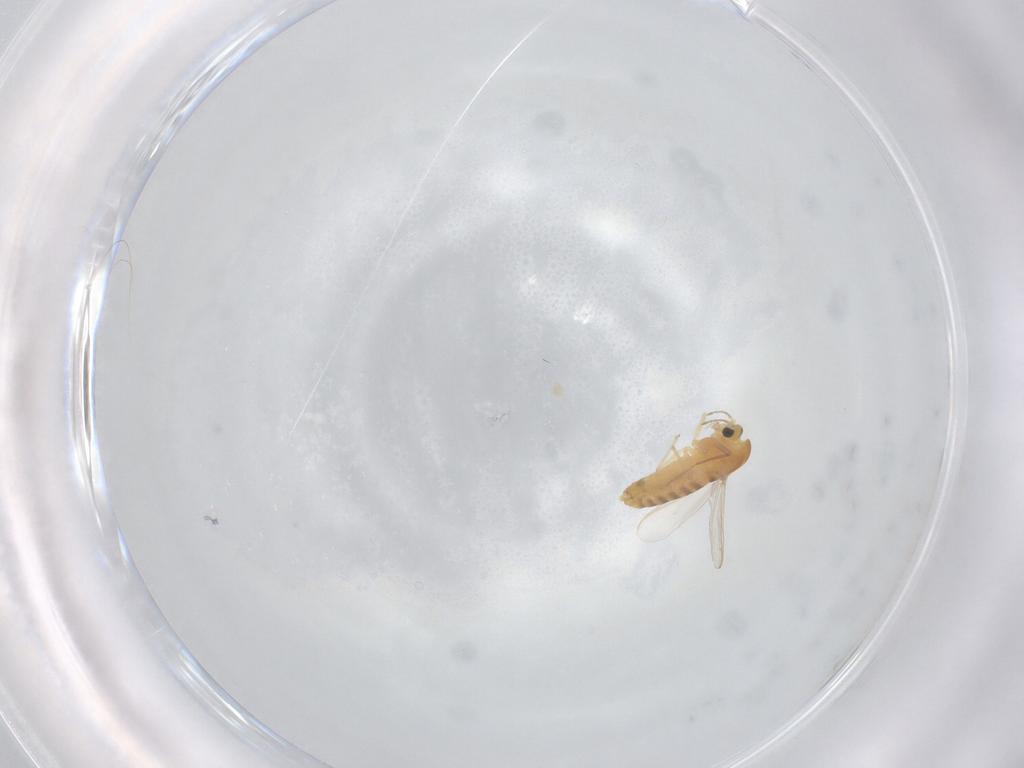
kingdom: Animalia
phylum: Arthropoda
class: Insecta
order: Diptera
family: Chironomidae
